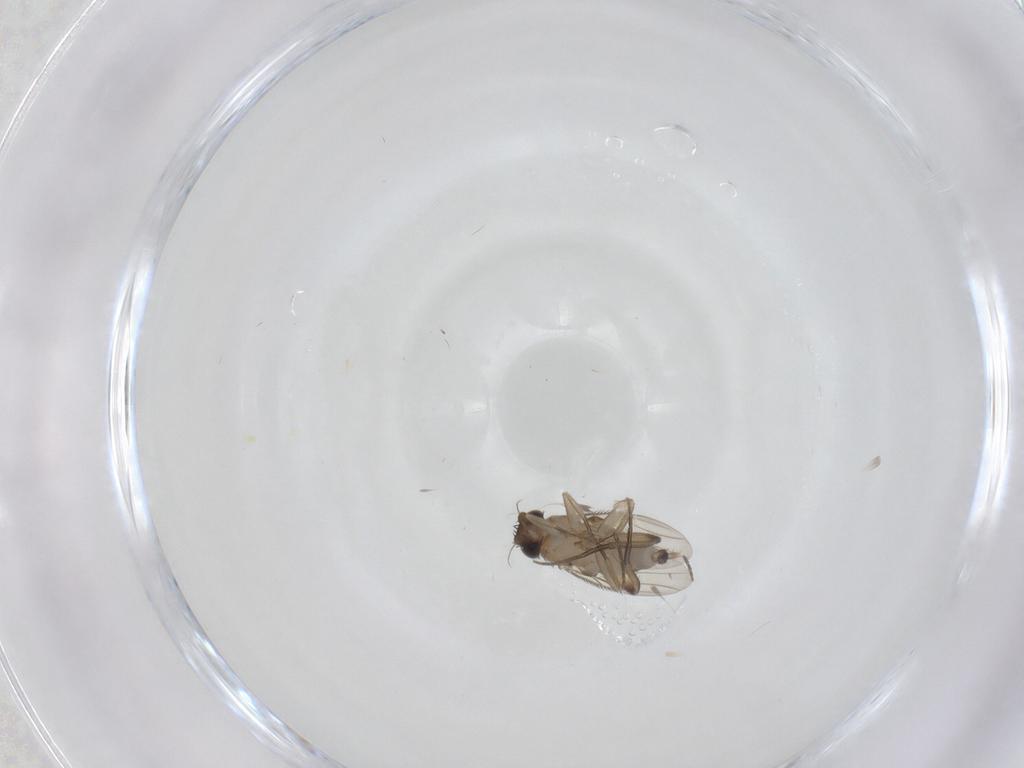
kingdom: Animalia
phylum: Arthropoda
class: Insecta
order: Diptera
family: Phoridae
